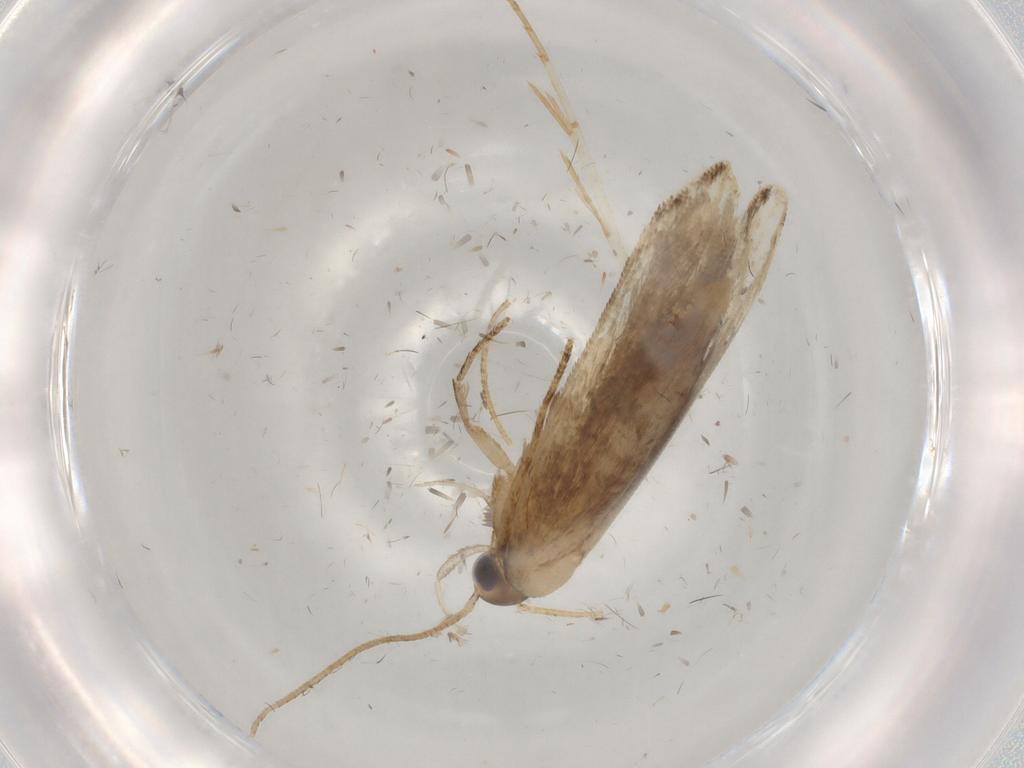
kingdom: Animalia
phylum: Arthropoda
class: Insecta
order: Lepidoptera
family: Gelechiidae
